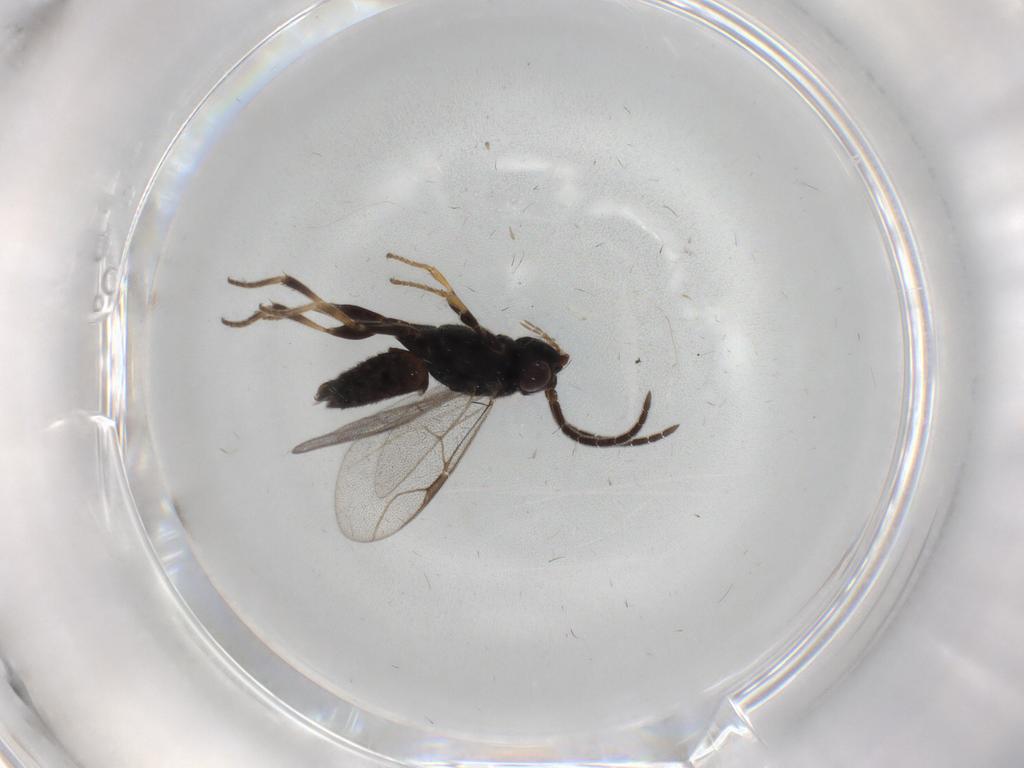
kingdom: Animalia
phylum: Arthropoda
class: Insecta
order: Hymenoptera
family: Dryinidae
